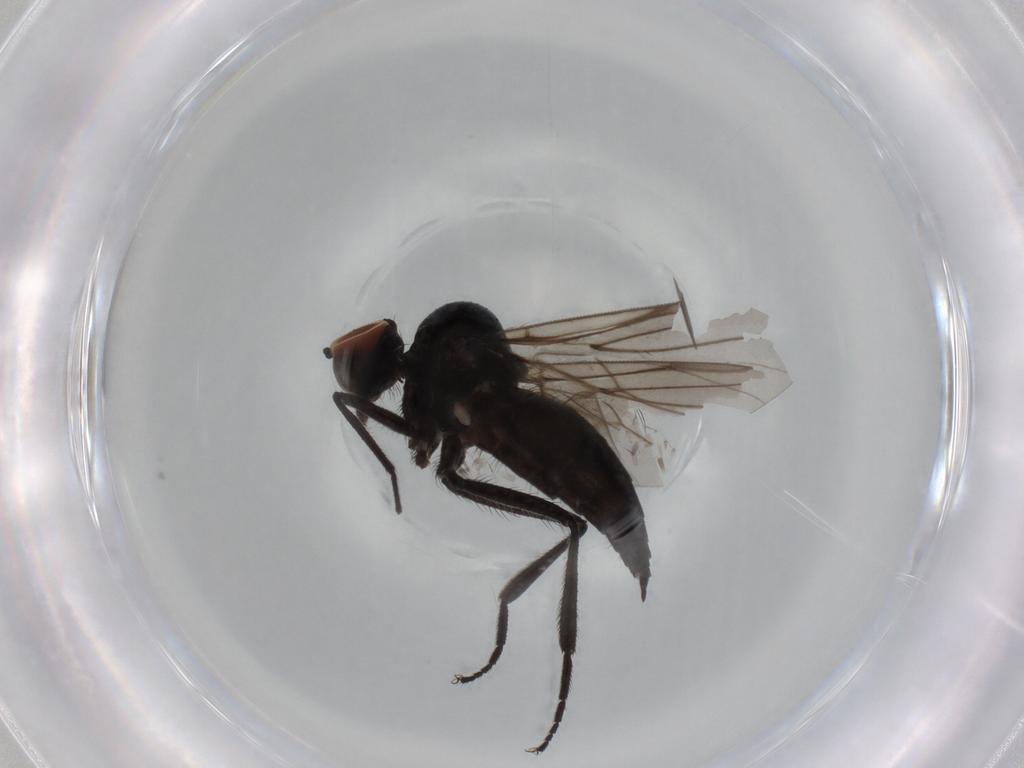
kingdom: Animalia
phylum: Arthropoda
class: Insecta
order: Diptera
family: Hybotidae
